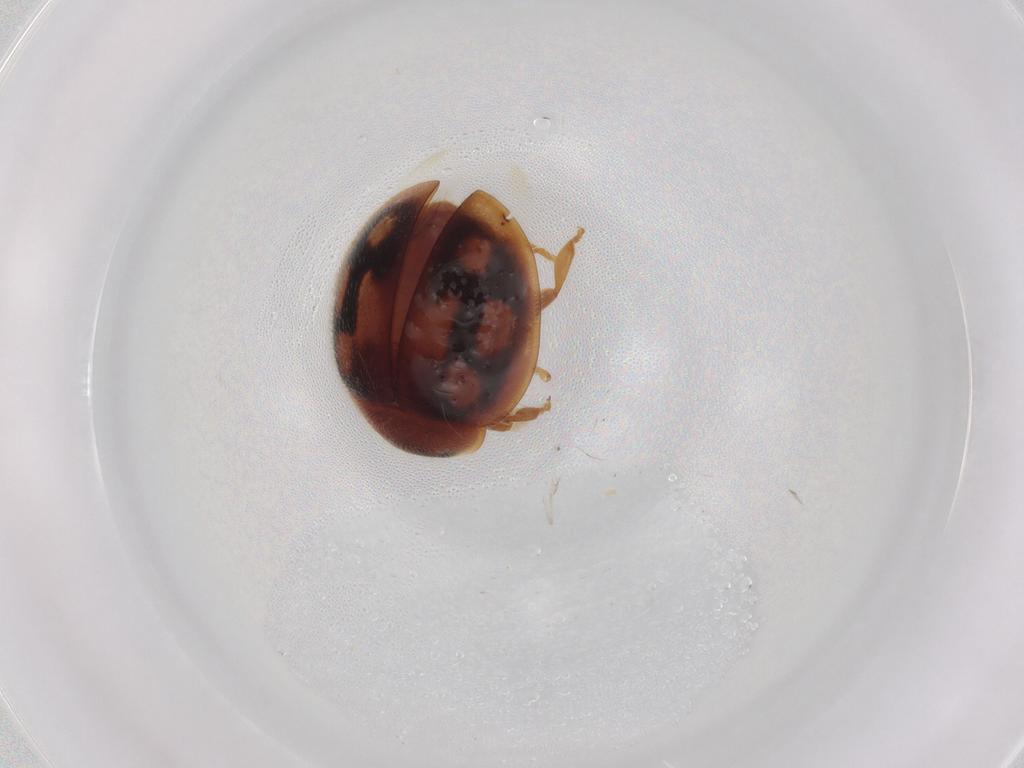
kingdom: Animalia
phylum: Arthropoda
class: Insecta
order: Coleoptera
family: Coccinellidae
